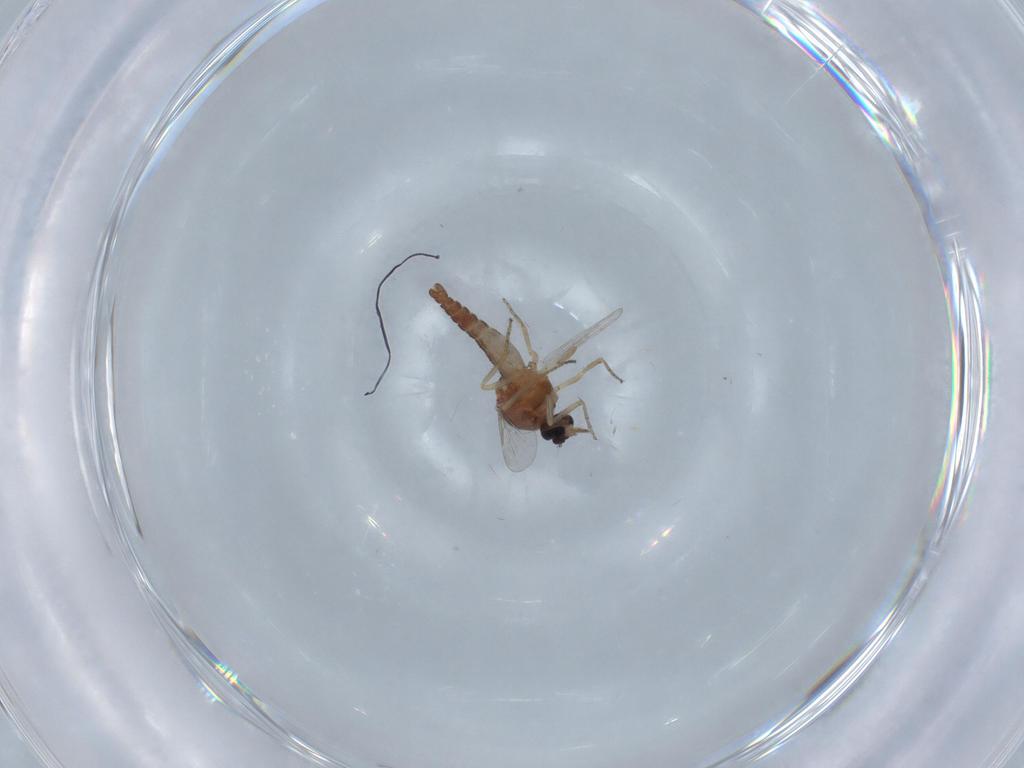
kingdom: Animalia
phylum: Arthropoda
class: Insecta
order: Diptera
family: Ceratopogonidae
